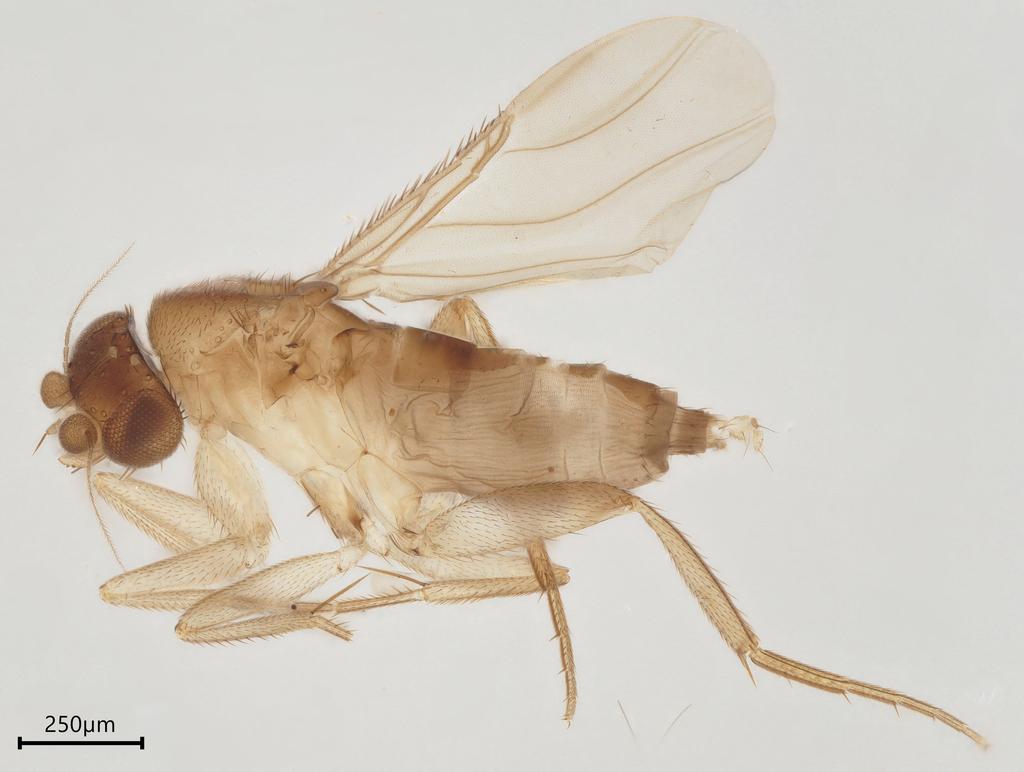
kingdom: Animalia
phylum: Arthropoda
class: Insecta
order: Diptera
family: Phoridae
